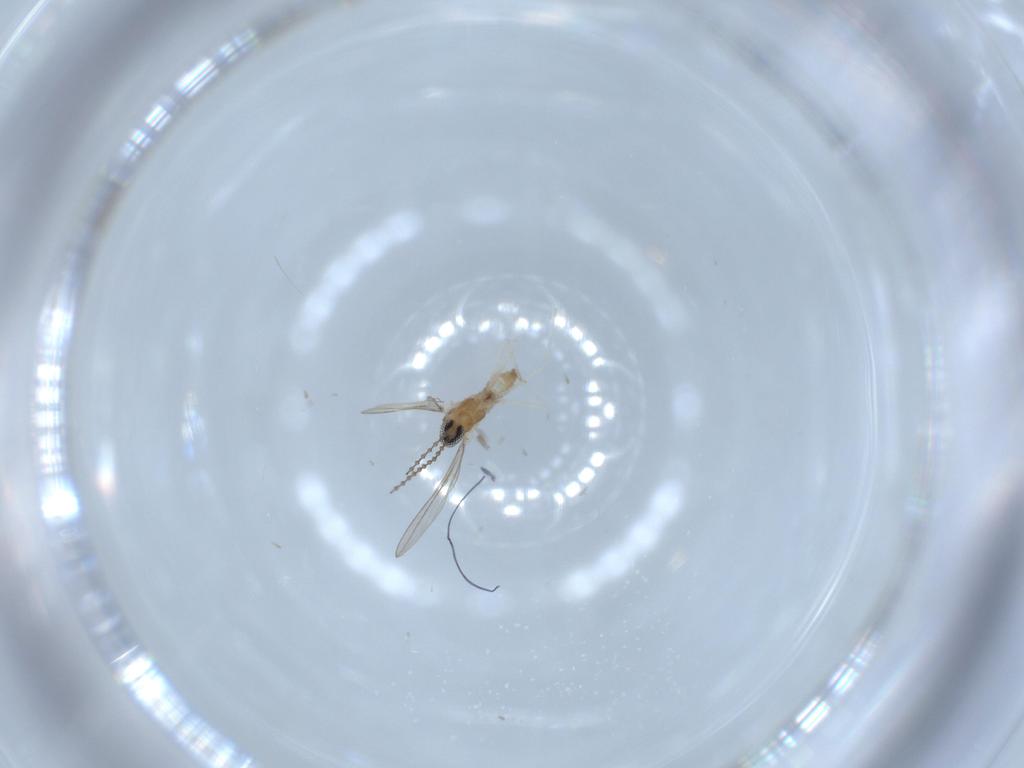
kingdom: Animalia
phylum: Arthropoda
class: Insecta
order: Diptera
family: Cecidomyiidae
